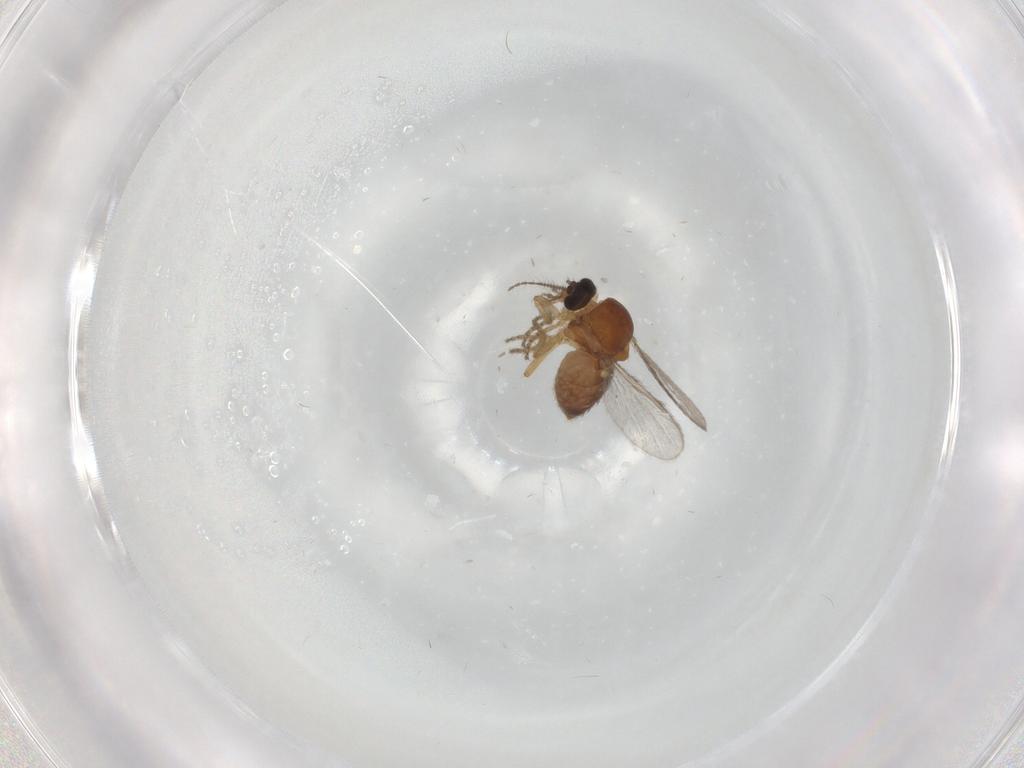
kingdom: Animalia
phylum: Arthropoda
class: Insecta
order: Diptera
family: Ceratopogonidae
